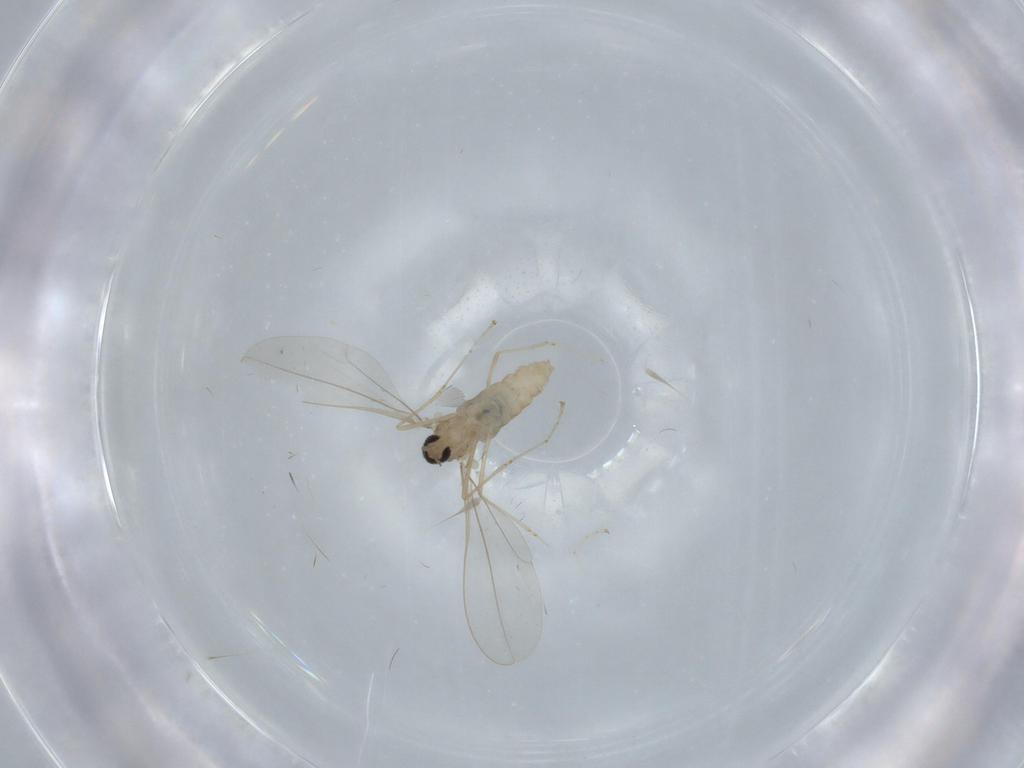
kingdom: Animalia
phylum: Arthropoda
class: Insecta
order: Diptera
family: Cecidomyiidae
